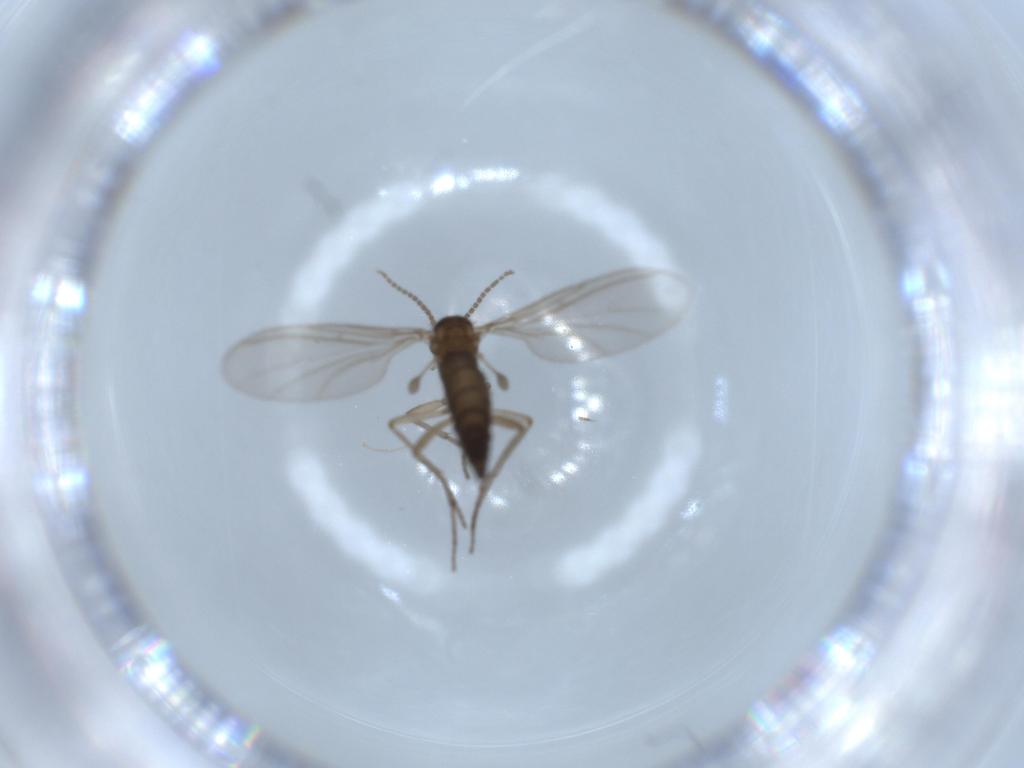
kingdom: Animalia
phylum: Arthropoda
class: Insecta
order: Diptera
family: Sciaridae
